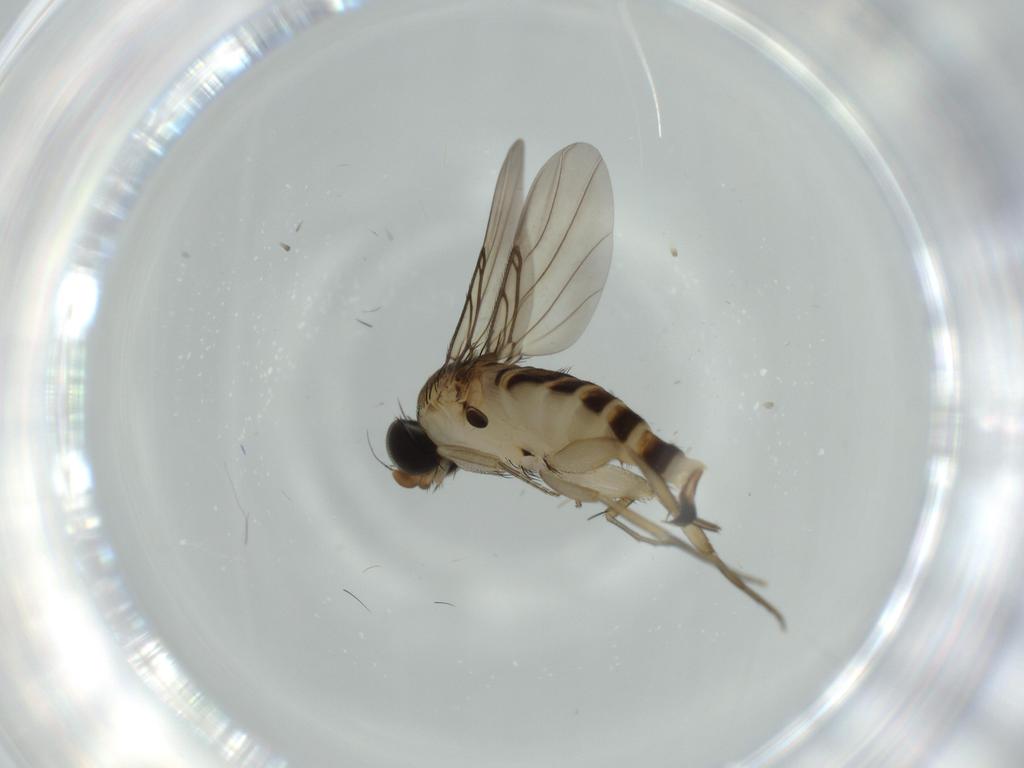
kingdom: Animalia
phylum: Arthropoda
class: Insecta
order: Diptera
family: Phoridae
